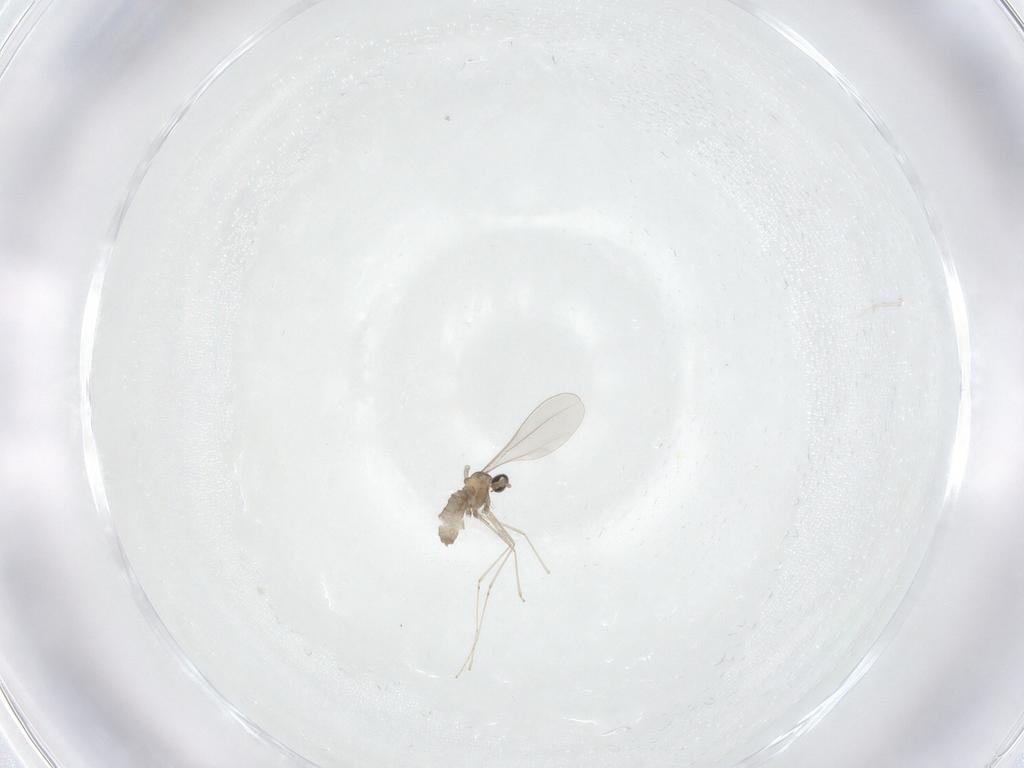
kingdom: Animalia
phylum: Arthropoda
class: Insecta
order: Diptera
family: Cecidomyiidae
